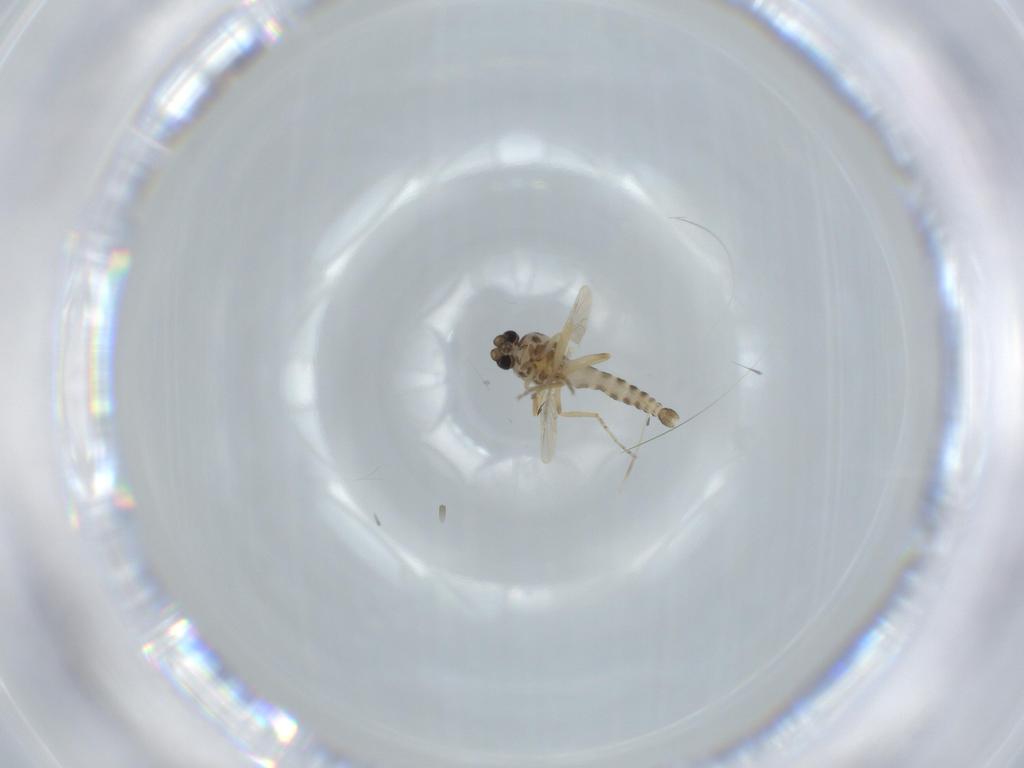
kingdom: Animalia
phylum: Arthropoda
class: Insecta
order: Diptera
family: Ceratopogonidae
